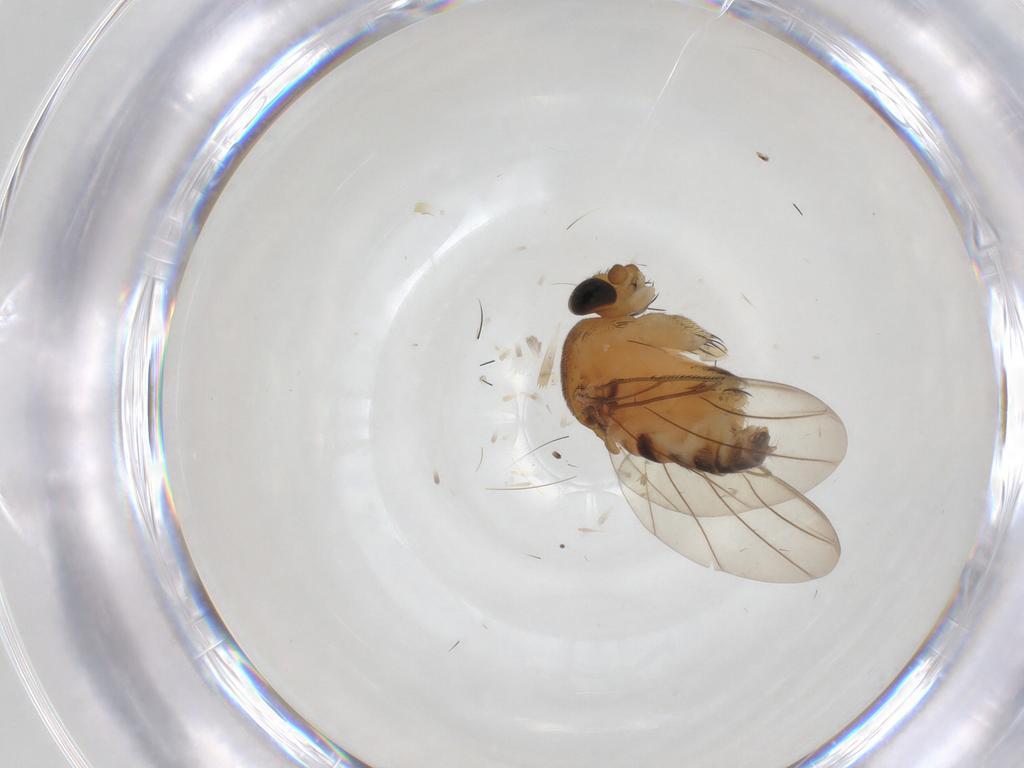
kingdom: Animalia
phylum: Arthropoda
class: Insecta
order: Diptera
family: Phoridae
